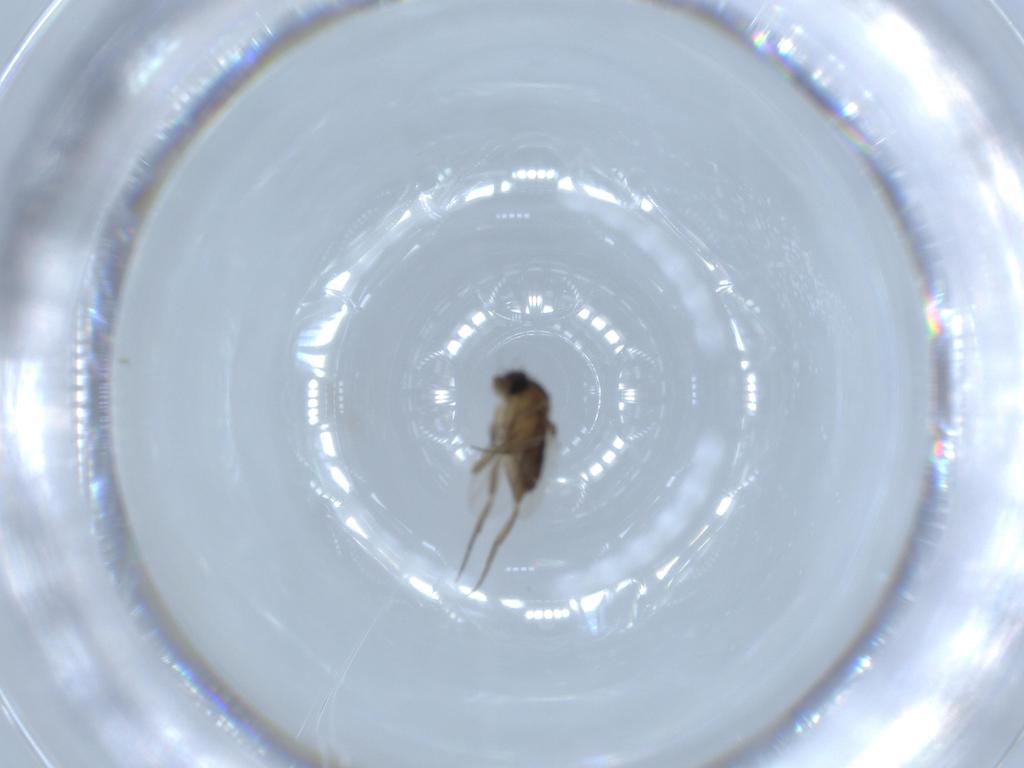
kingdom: Animalia
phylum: Arthropoda
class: Insecta
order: Diptera
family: Phoridae
